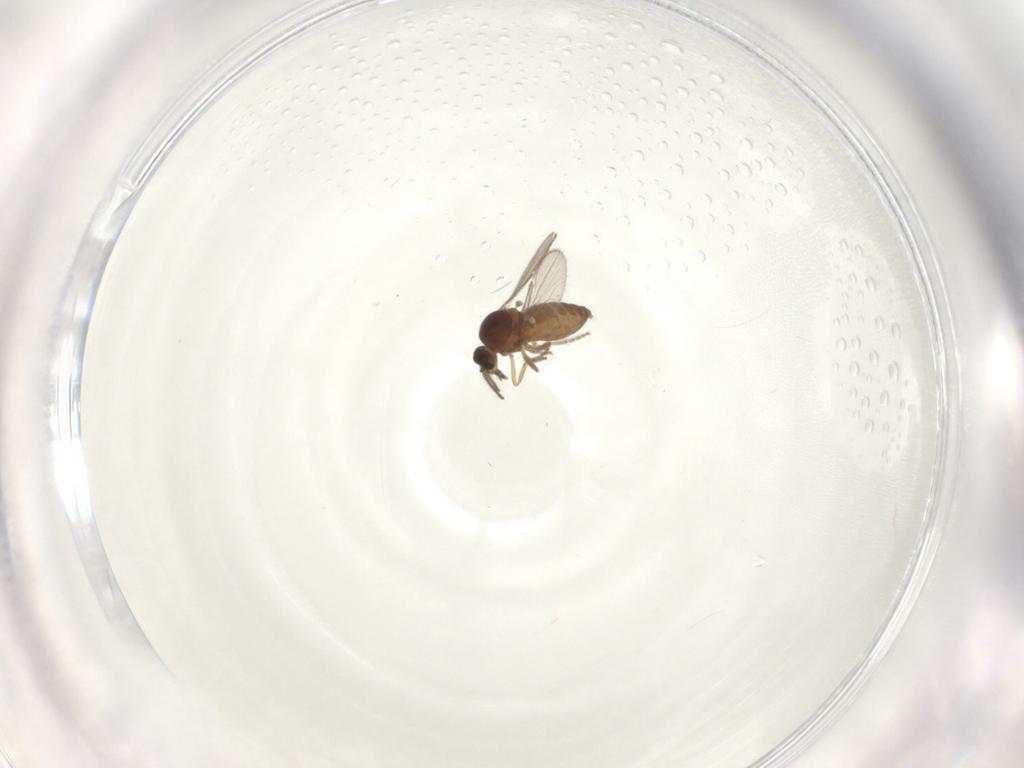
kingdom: Animalia
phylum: Arthropoda
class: Insecta
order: Diptera
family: Ceratopogonidae
